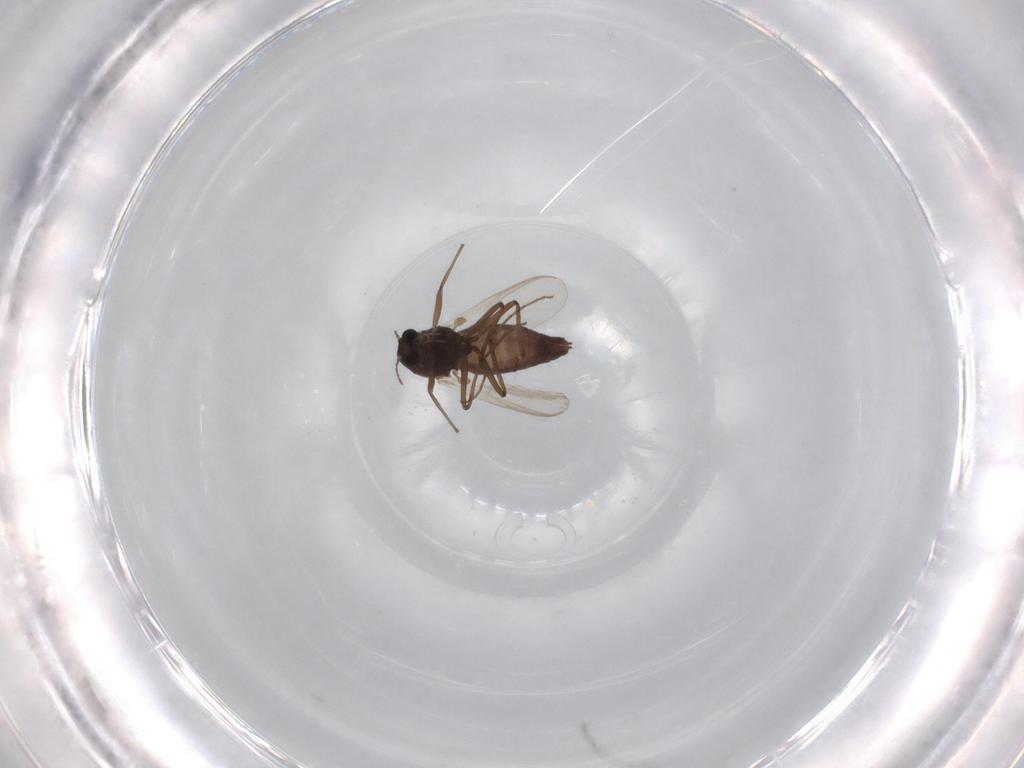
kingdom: Animalia
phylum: Arthropoda
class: Insecta
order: Diptera
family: Chironomidae
